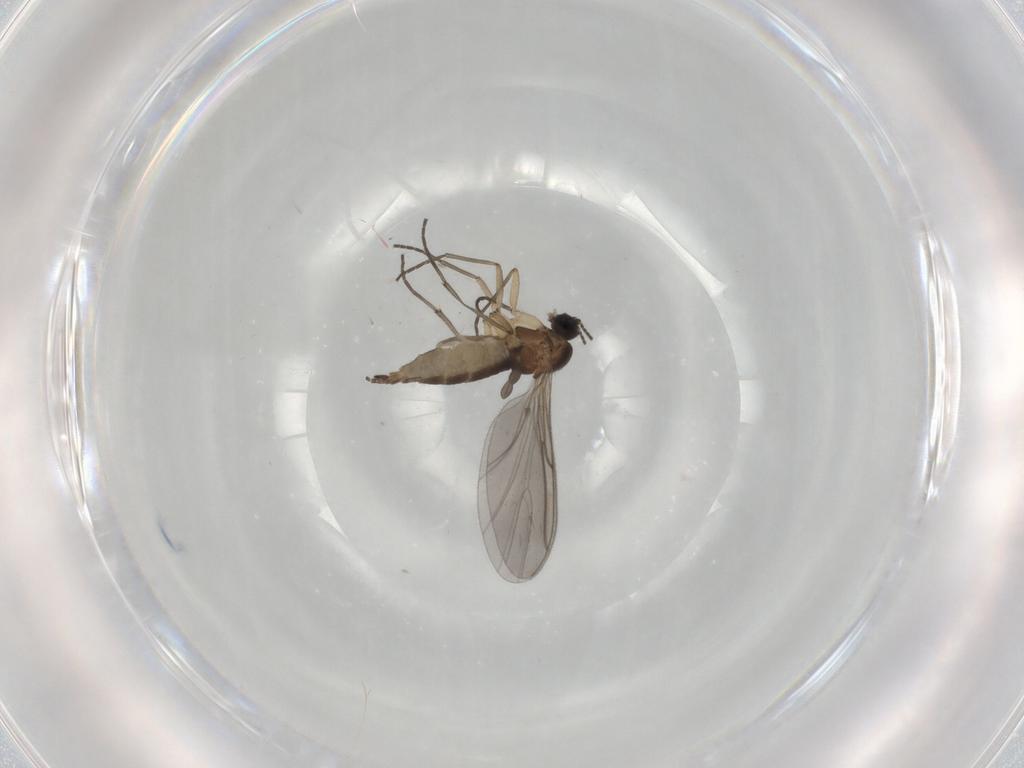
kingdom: Animalia
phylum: Arthropoda
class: Insecta
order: Diptera
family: Sciaridae
